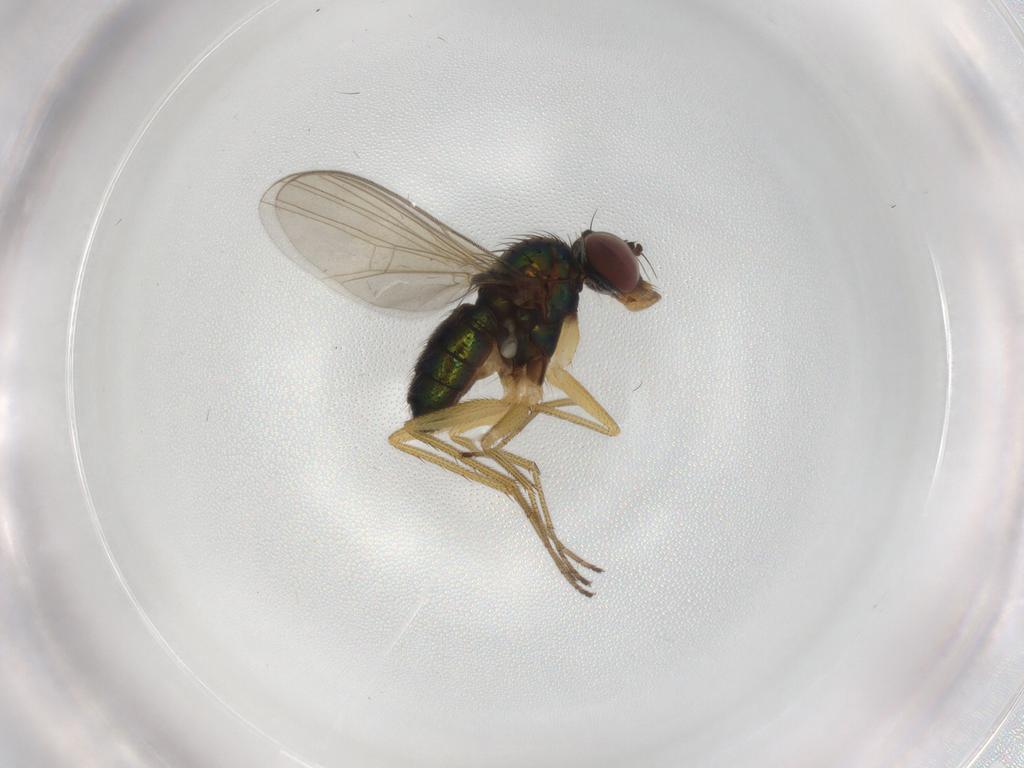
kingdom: Animalia
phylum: Arthropoda
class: Insecta
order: Diptera
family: Dolichopodidae
